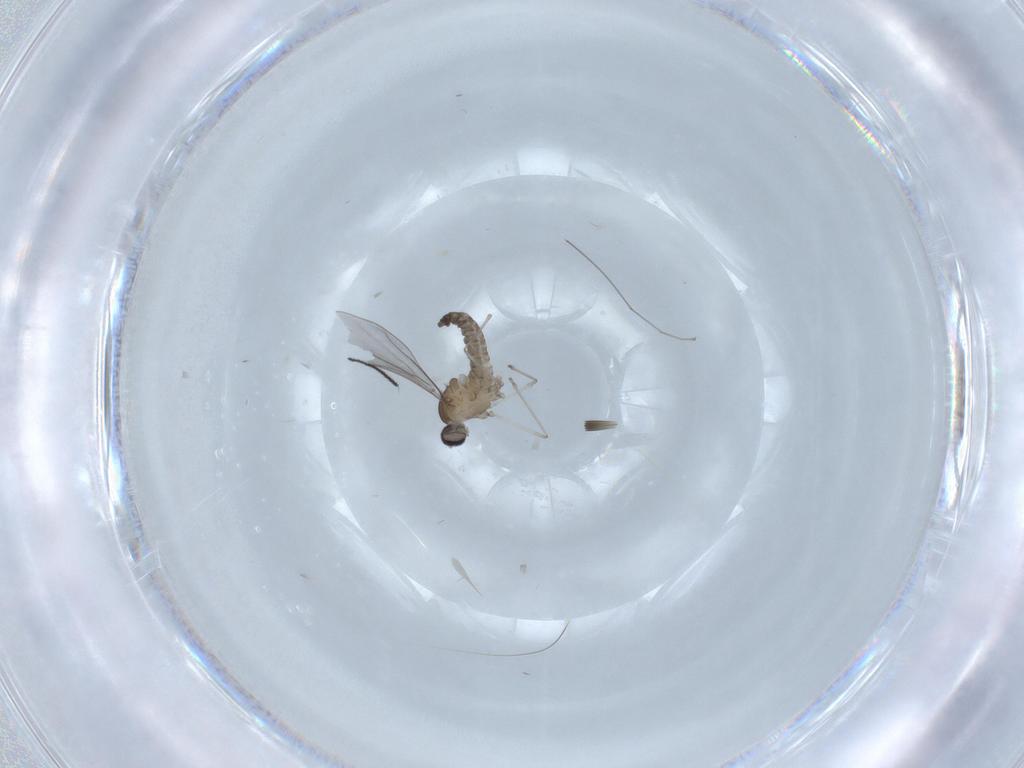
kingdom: Animalia
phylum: Arthropoda
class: Insecta
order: Diptera
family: Ditomyiidae
